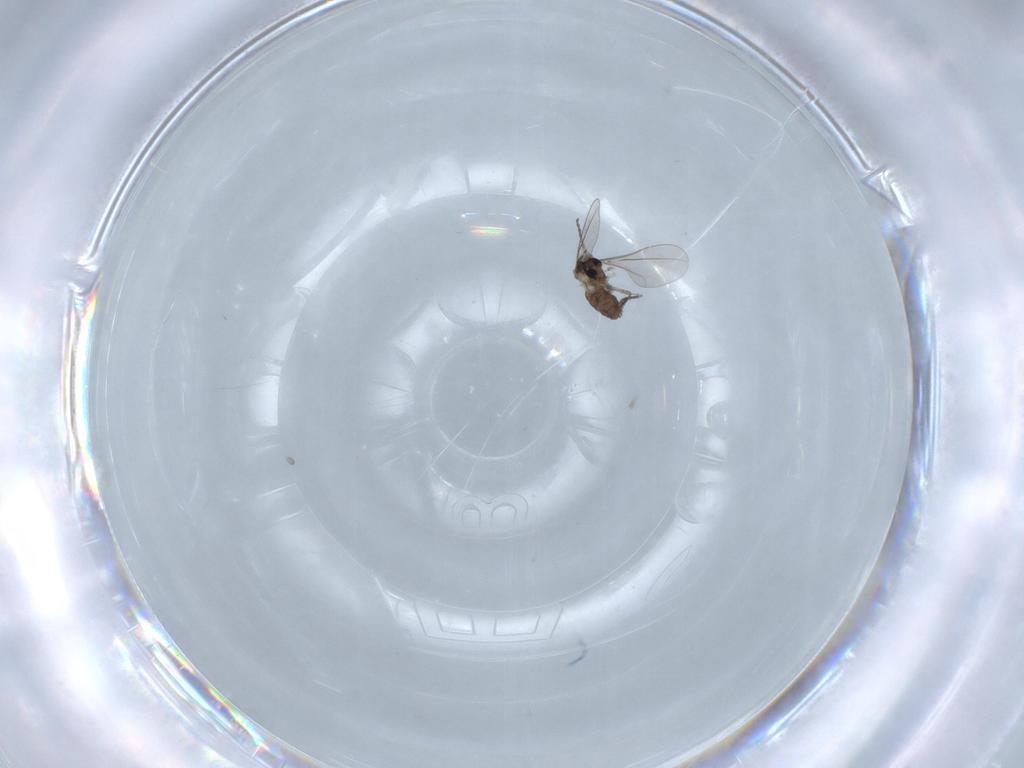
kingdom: Animalia
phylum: Arthropoda
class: Insecta
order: Diptera
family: Cecidomyiidae
